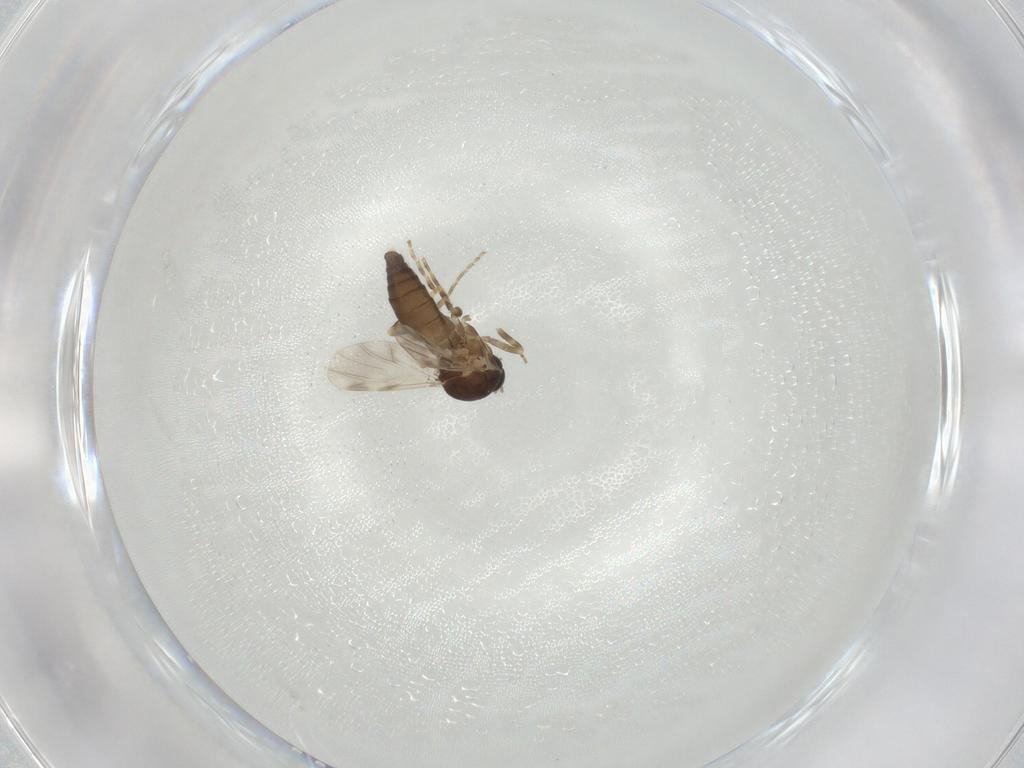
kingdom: Animalia
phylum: Arthropoda
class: Insecta
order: Diptera
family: Ceratopogonidae
